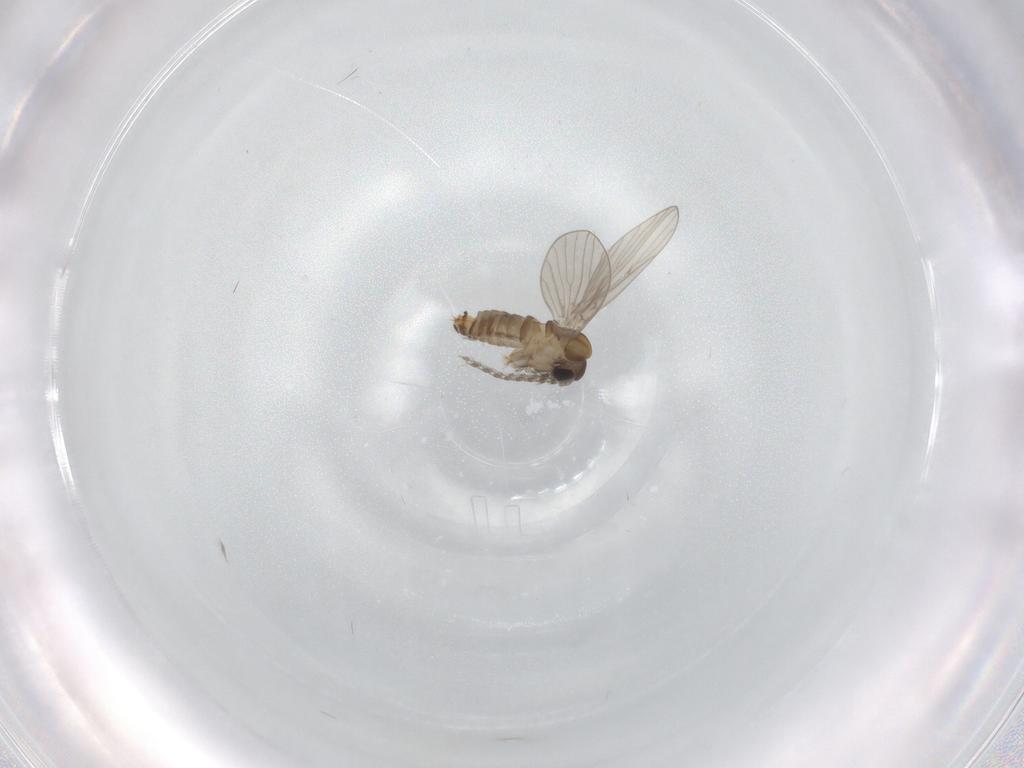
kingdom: Animalia
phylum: Arthropoda
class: Insecta
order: Diptera
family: Psychodidae
